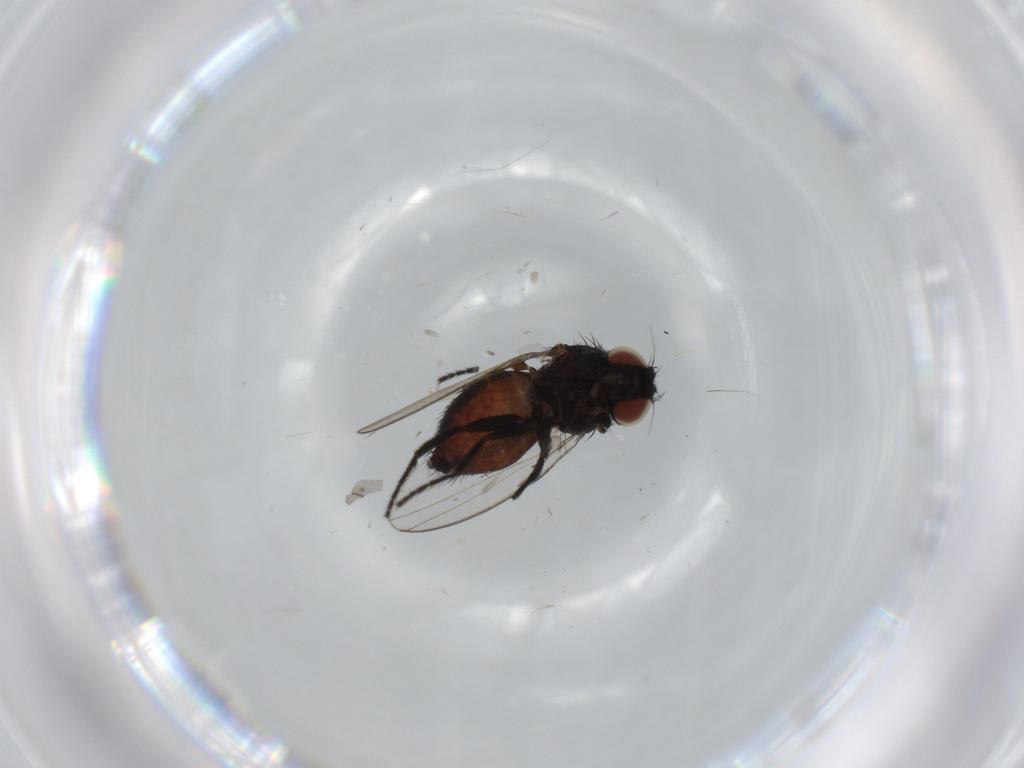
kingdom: Animalia
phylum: Arthropoda
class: Insecta
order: Diptera
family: Milichiidae
